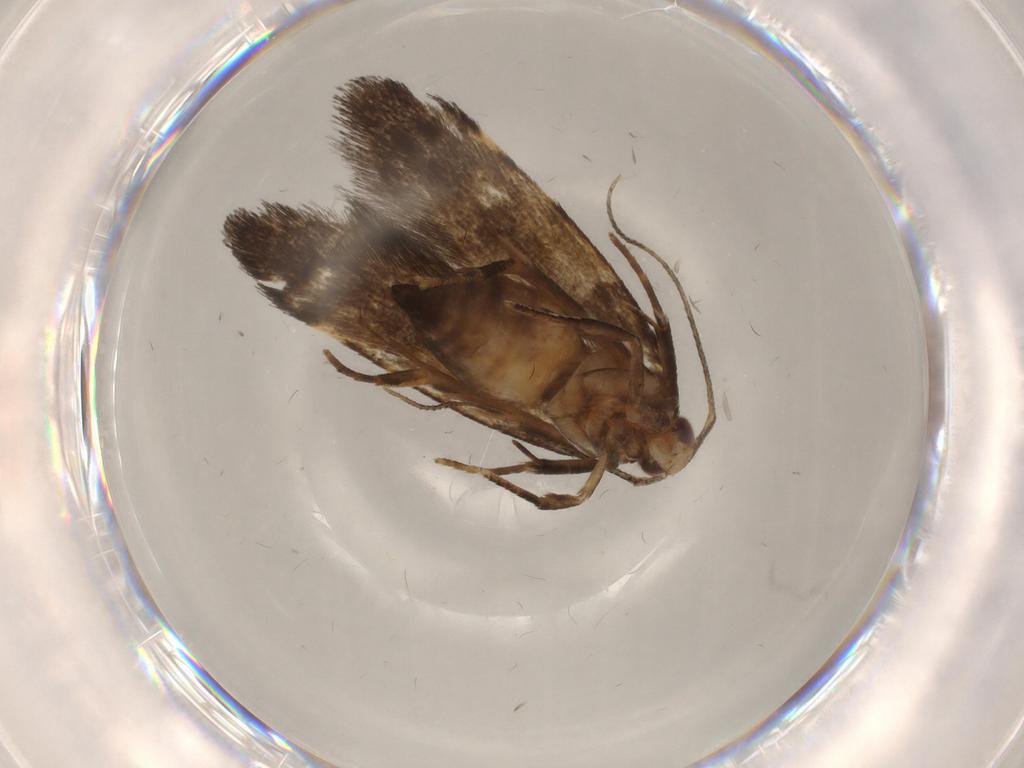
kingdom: Animalia
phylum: Arthropoda
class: Insecta
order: Lepidoptera
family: Cosmopterigidae
